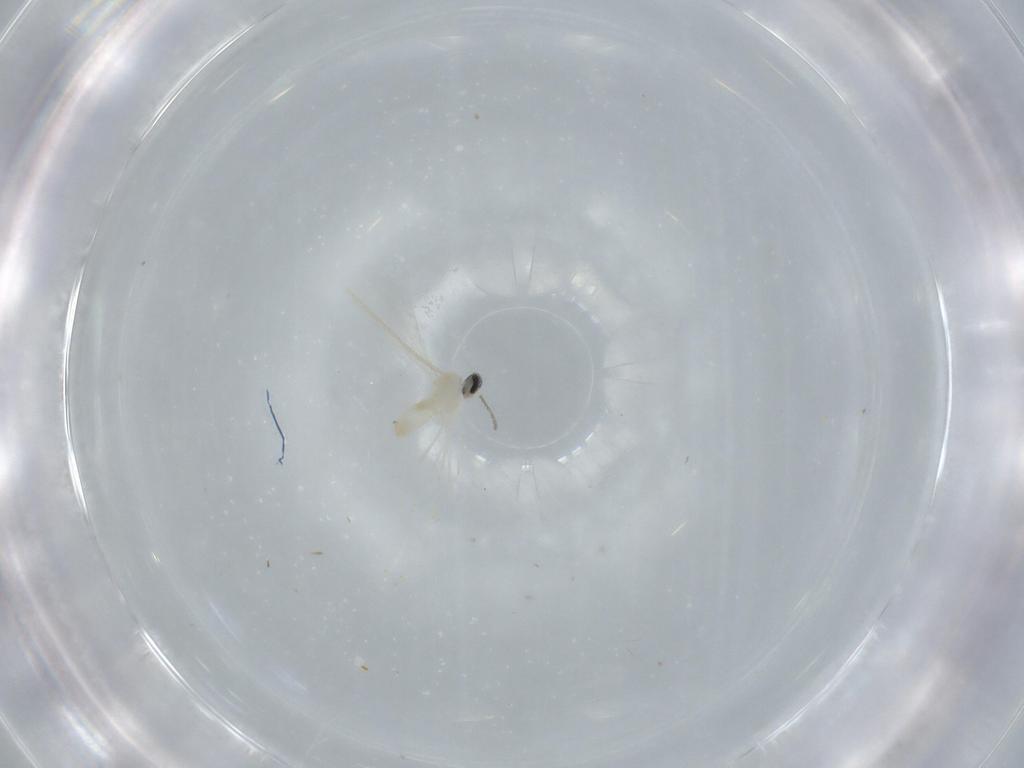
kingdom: Animalia
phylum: Arthropoda
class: Insecta
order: Diptera
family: Cecidomyiidae
